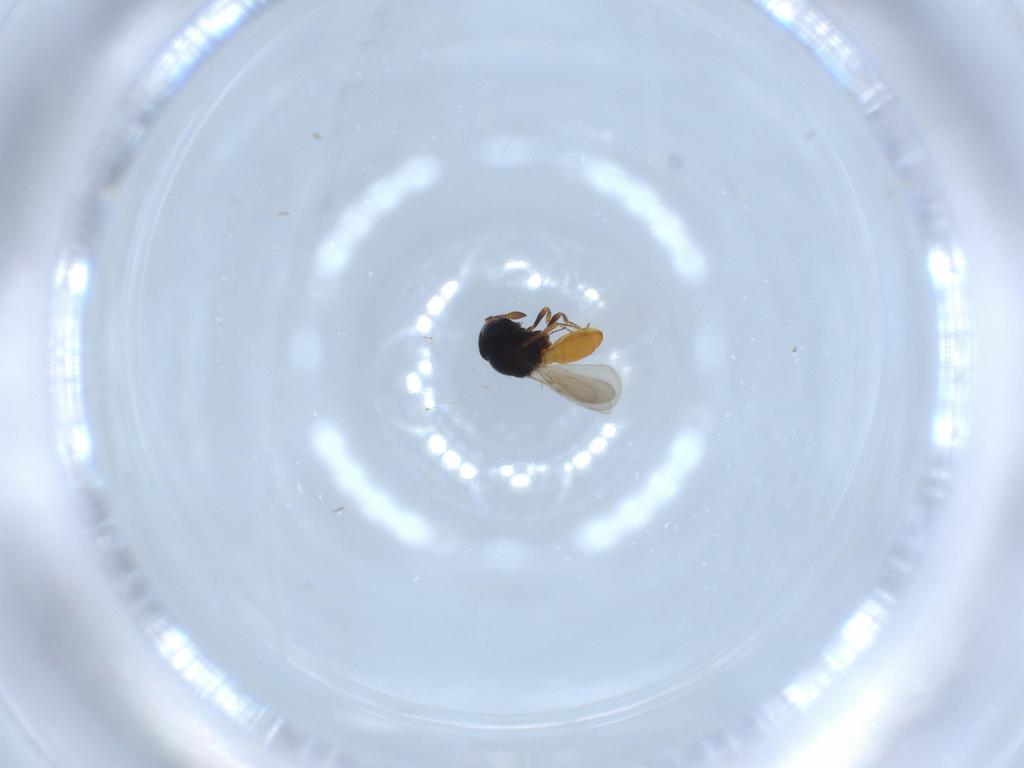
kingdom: Animalia
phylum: Arthropoda
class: Insecta
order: Hymenoptera
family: Scelionidae
